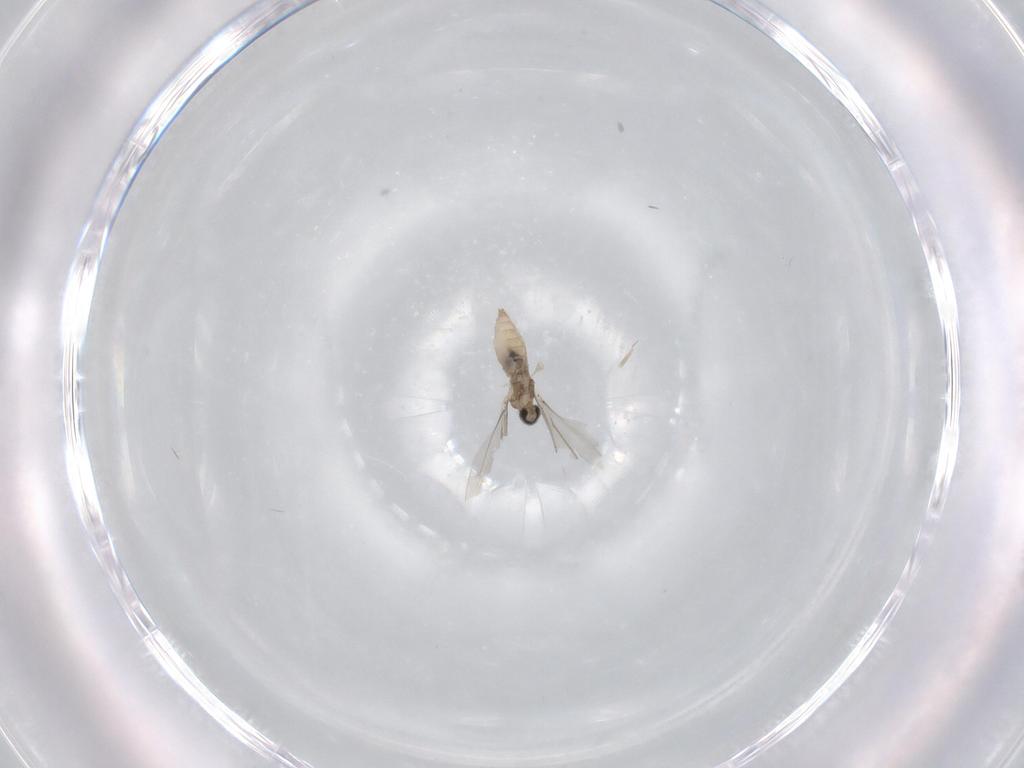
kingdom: Animalia
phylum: Arthropoda
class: Insecta
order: Diptera
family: Cecidomyiidae
